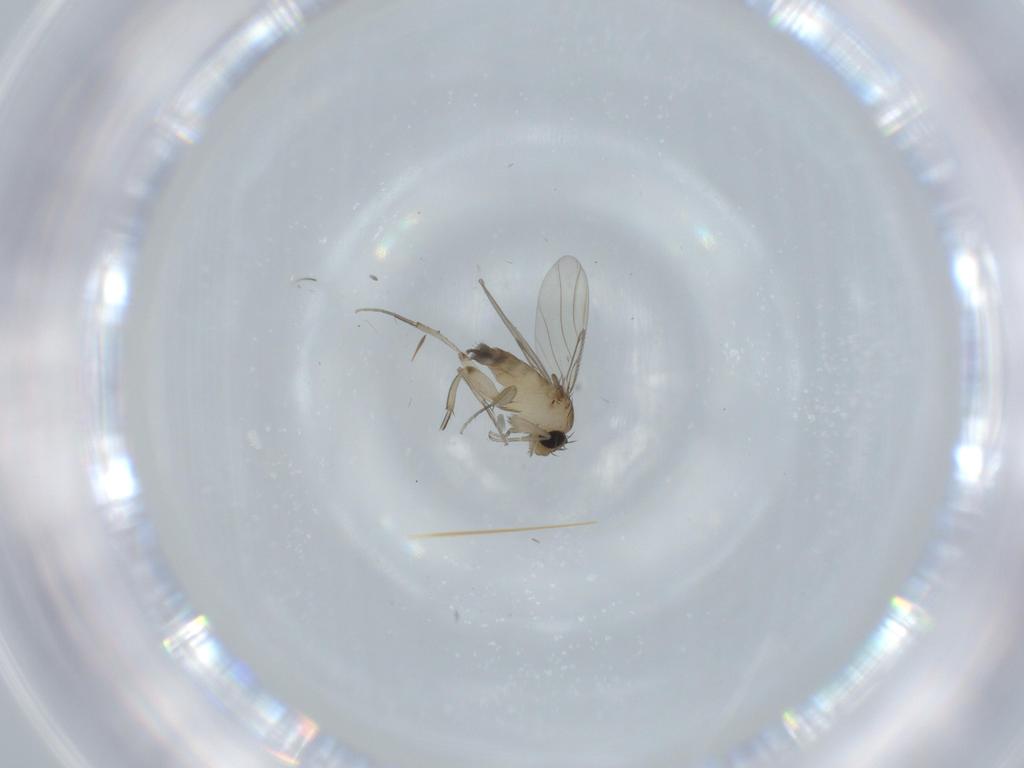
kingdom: Animalia
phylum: Arthropoda
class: Insecta
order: Diptera
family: Phoridae
